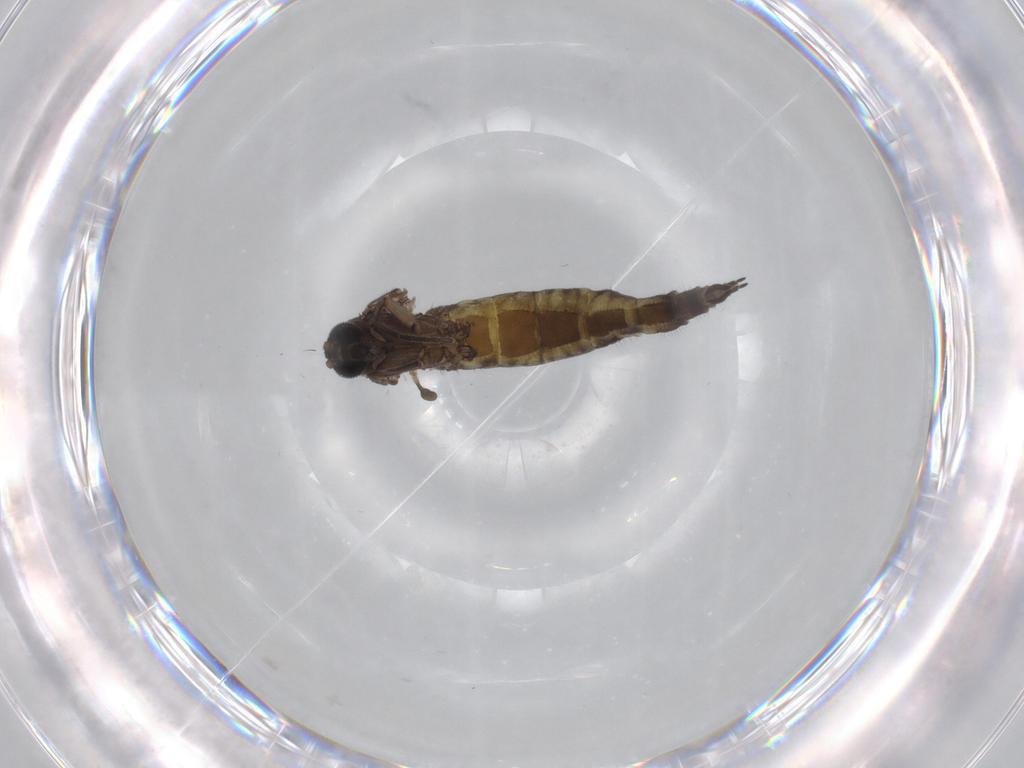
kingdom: Animalia
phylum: Arthropoda
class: Insecta
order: Diptera
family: Sciaridae
